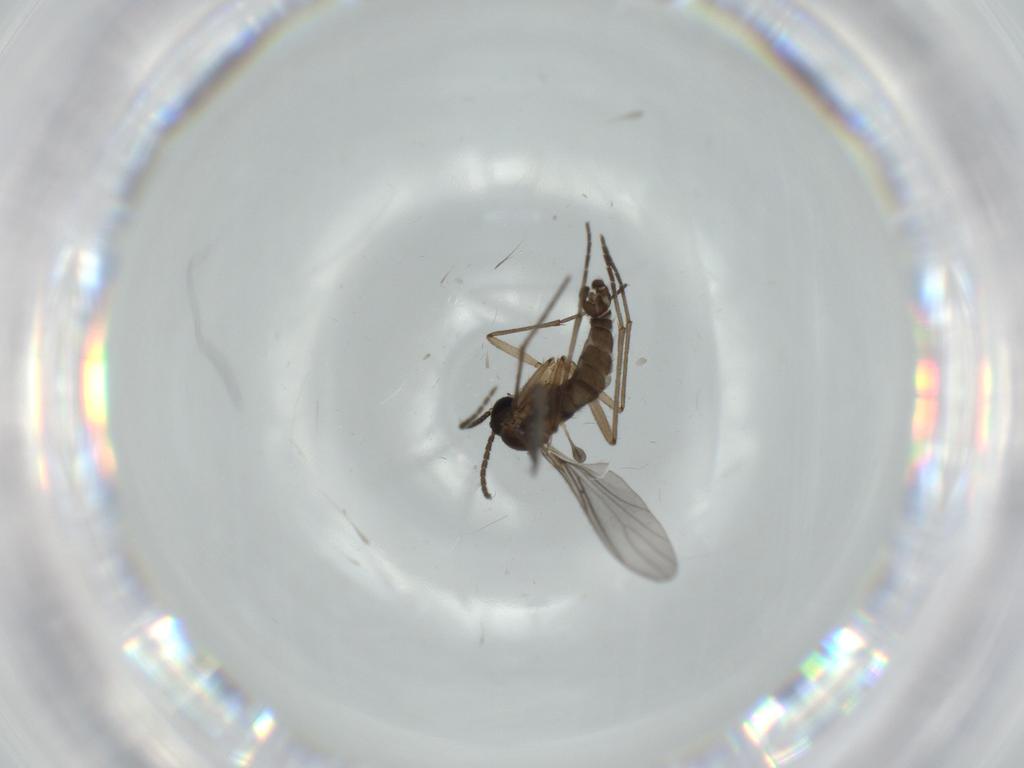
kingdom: Animalia
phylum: Arthropoda
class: Insecta
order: Diptera
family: Sciaridae
